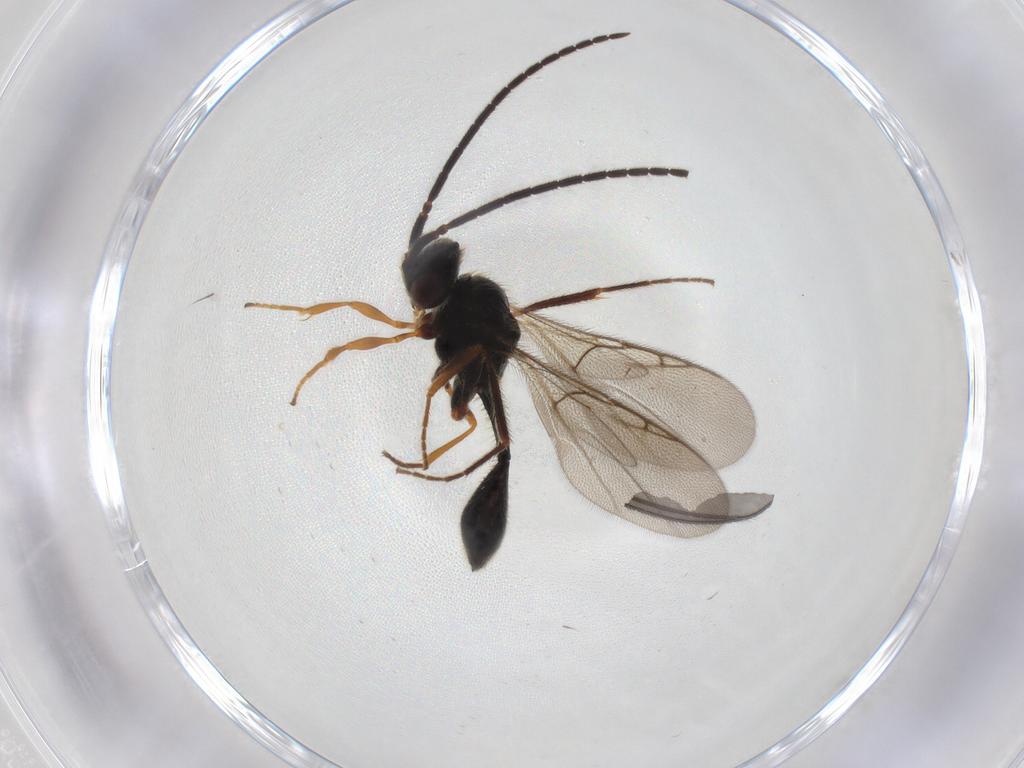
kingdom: Animalia
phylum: Arthropoda
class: Insecta
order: Hymenoptera
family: Diapriidae
